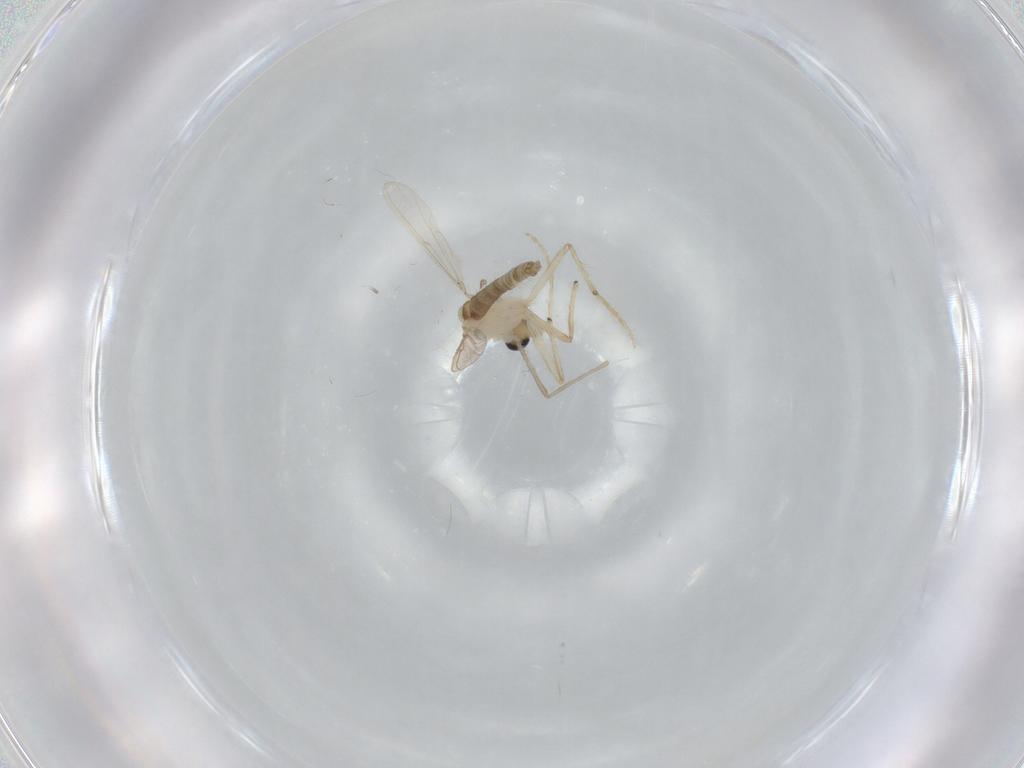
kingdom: Animalia
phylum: Arthropoda
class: Insecta
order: Diptera
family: Chironomidae
